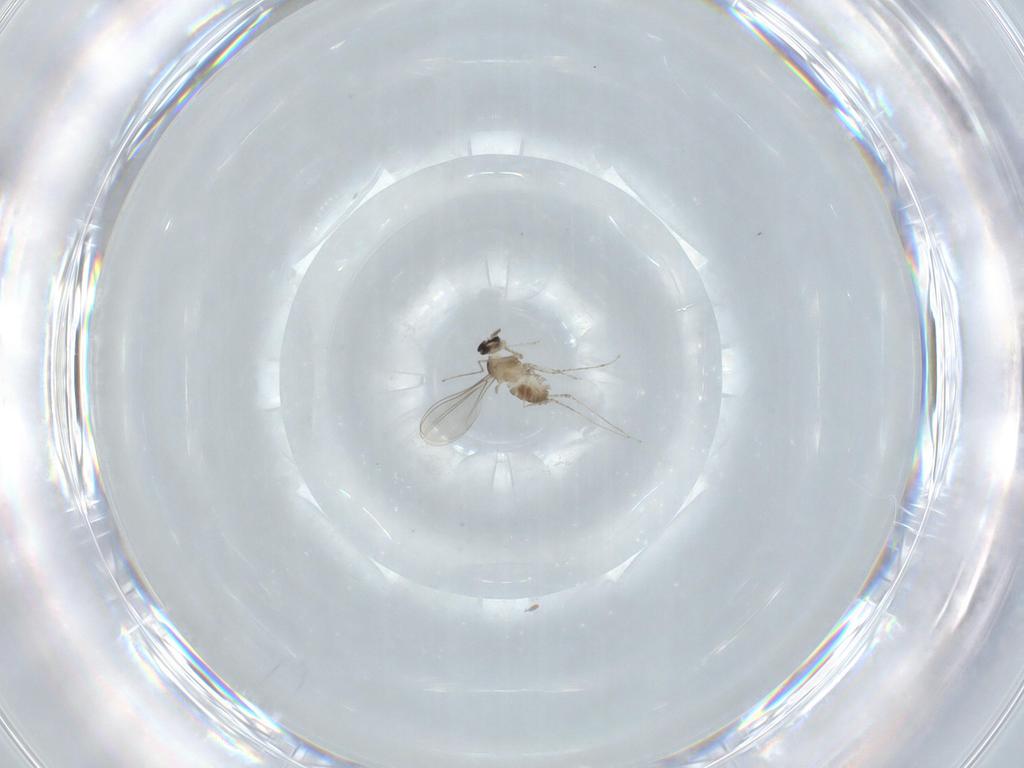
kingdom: Animalia
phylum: Arthropoda
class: Insecta
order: Diptera
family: Cecidomyiidae
